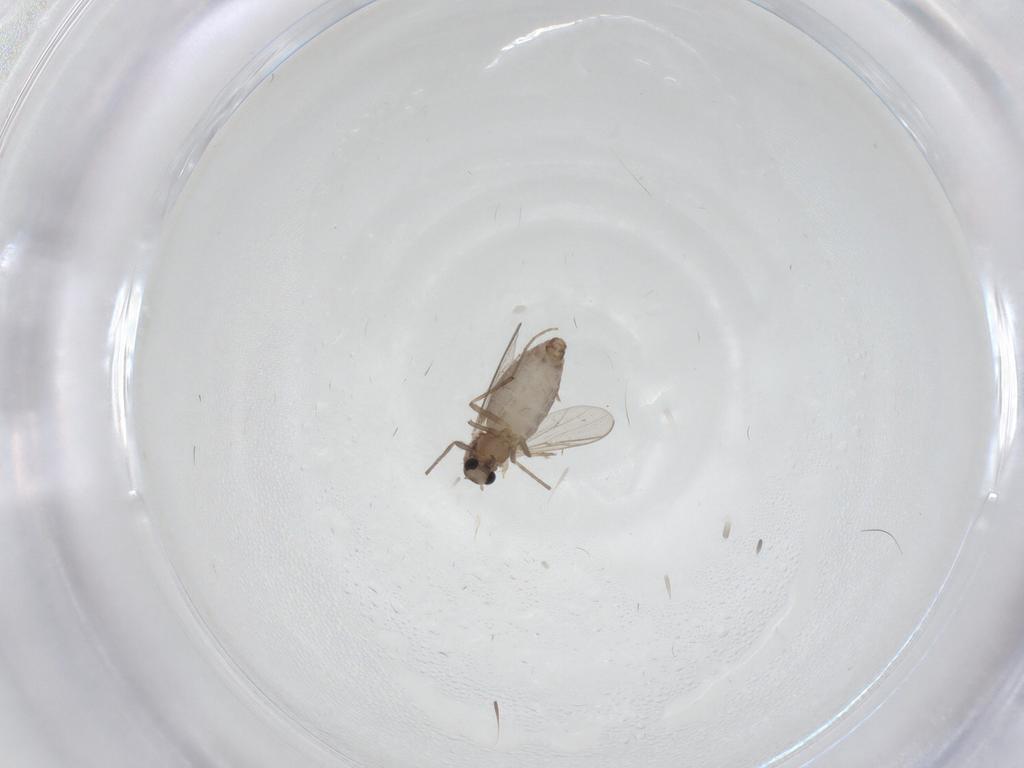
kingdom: Animalia
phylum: Arthropoda
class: Insecta
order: Diptera
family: Chironomidae
